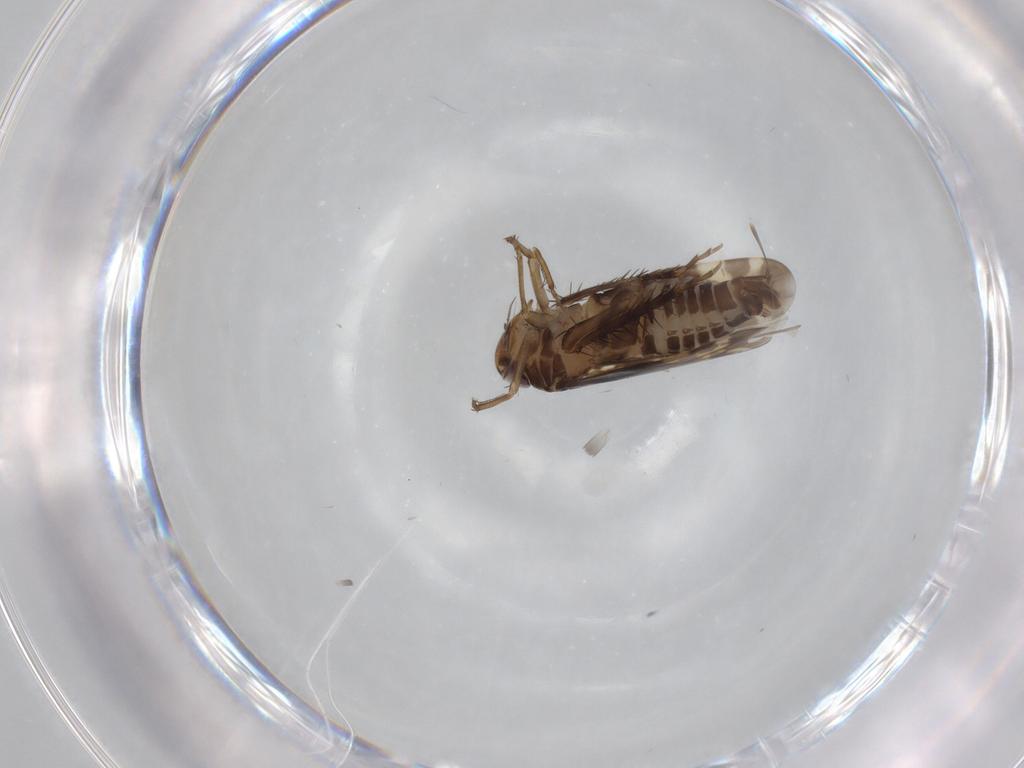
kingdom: Animalia
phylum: Arthropoda
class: Insecta
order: Hemiptera
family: Cicadellidae
